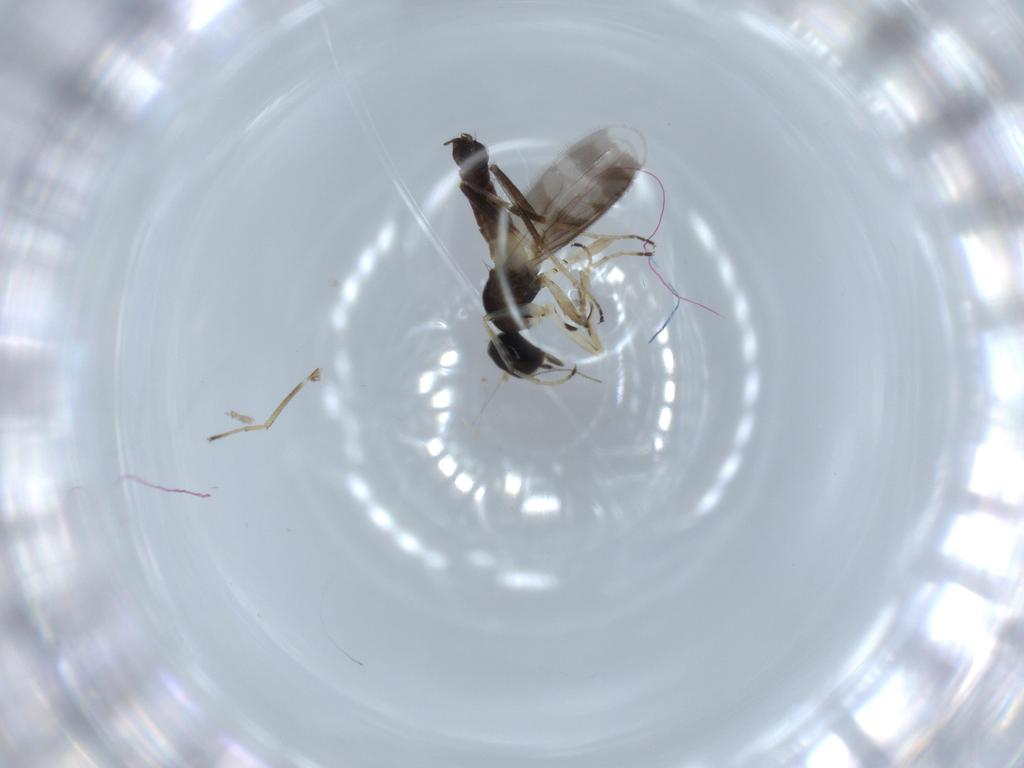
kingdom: Animalia
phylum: Arthropoda
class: Insecta
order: Diptera
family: Hybotidae
